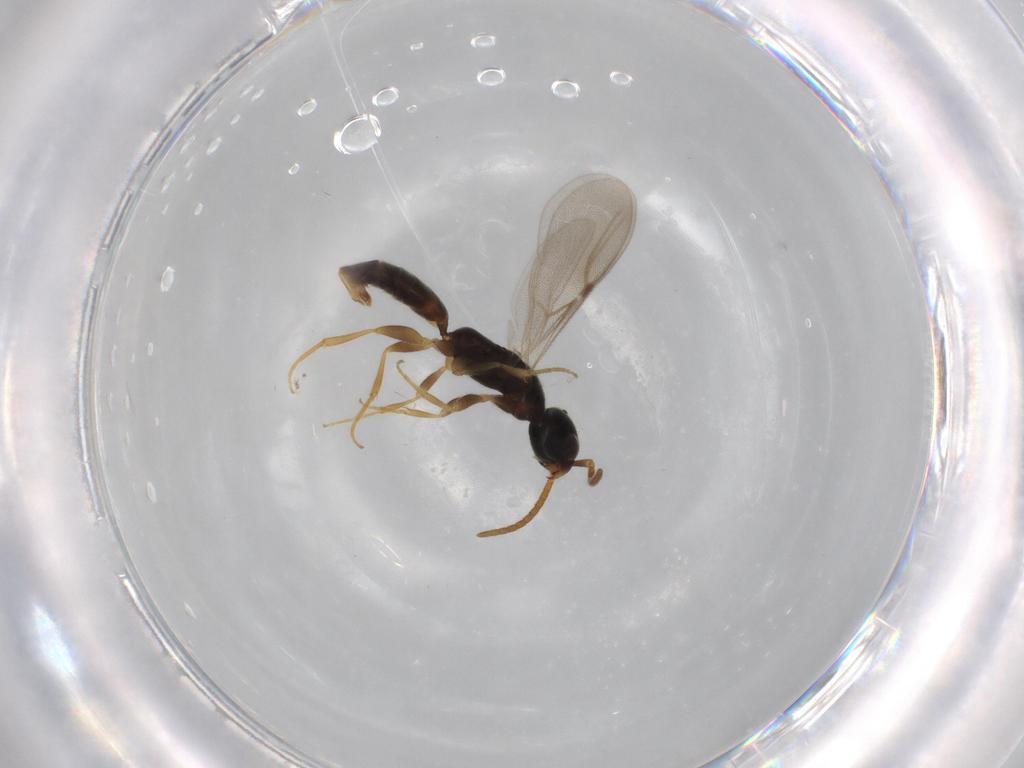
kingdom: Animalia
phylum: Arthropoda
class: Insecta
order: Hymenoptera
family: Bethylidae
